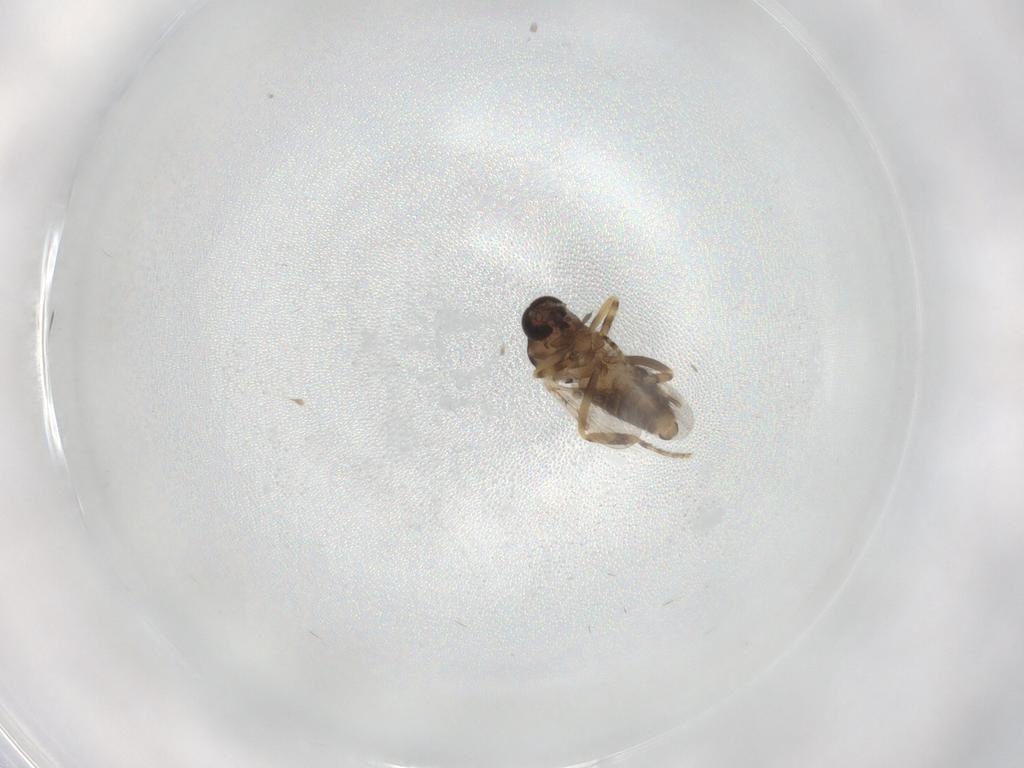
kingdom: Animalia
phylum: Arthropoda
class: Insecta
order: Diptera
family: Ceratopogonidae
